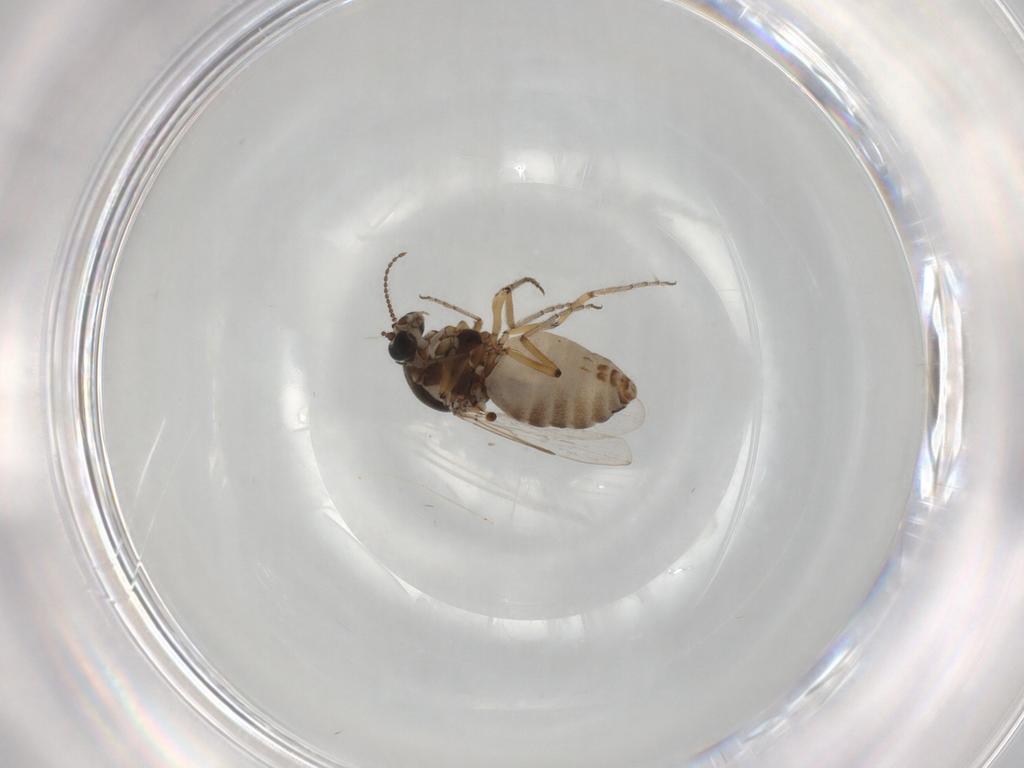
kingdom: Animalia
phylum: Arthropoda
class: Insecta
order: Diptera
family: Ceratopogonidae
